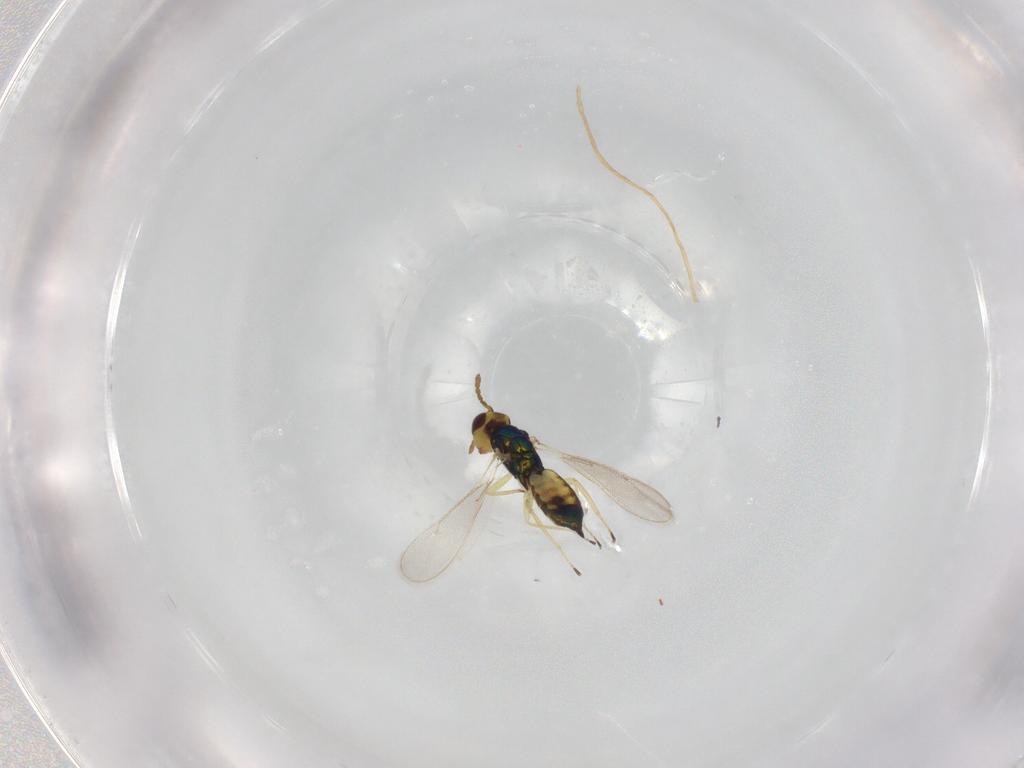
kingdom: Animalia
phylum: Arthropoda
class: Insecta
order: Hymenoptera
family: Eulophidae
